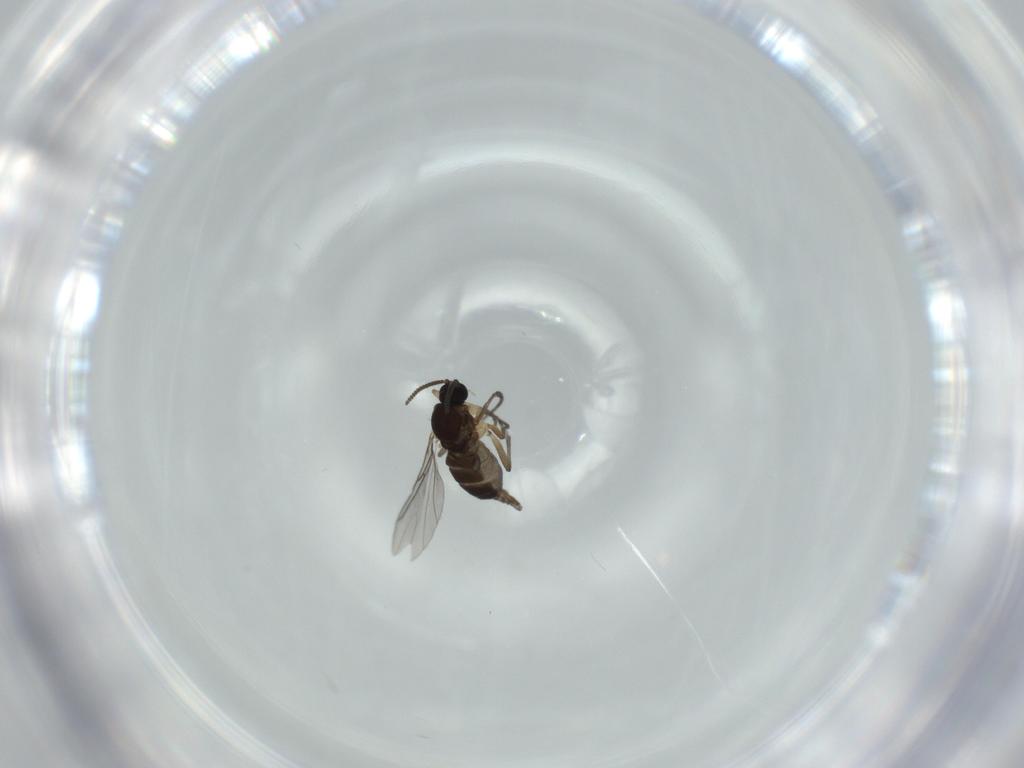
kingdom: Animalia
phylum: Arthropoda
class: Insecta
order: Diptera
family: Sciaridae
